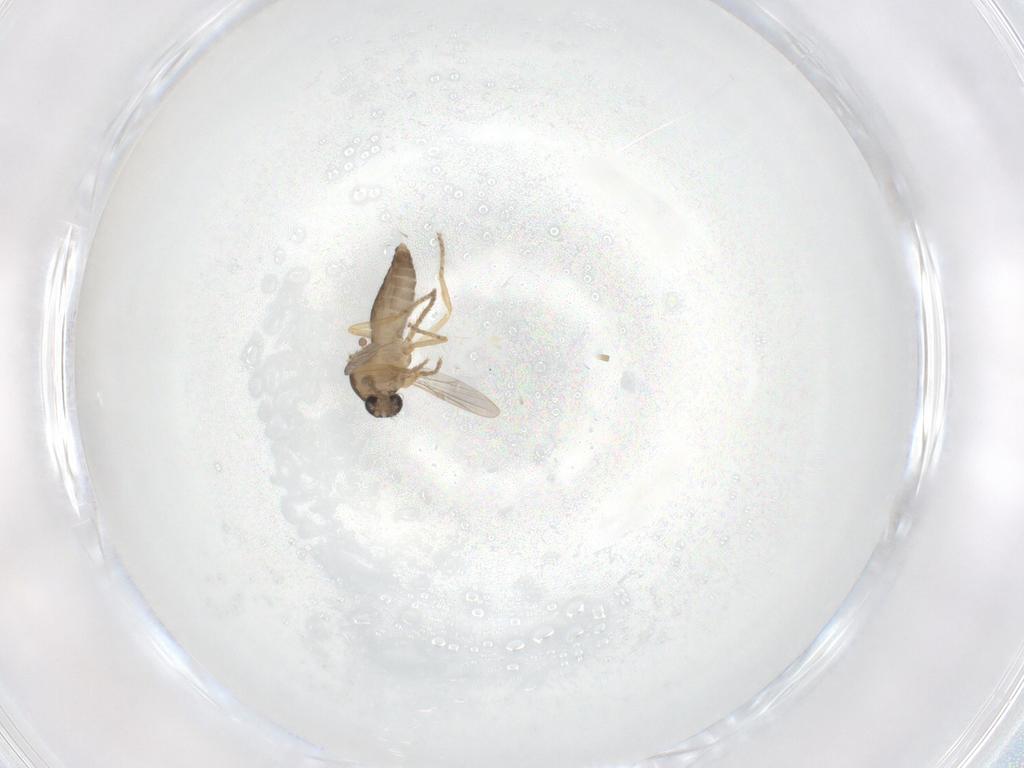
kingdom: Animalia
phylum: Arthropoda
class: Insecta
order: Diptera
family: Ceratopogonidae
